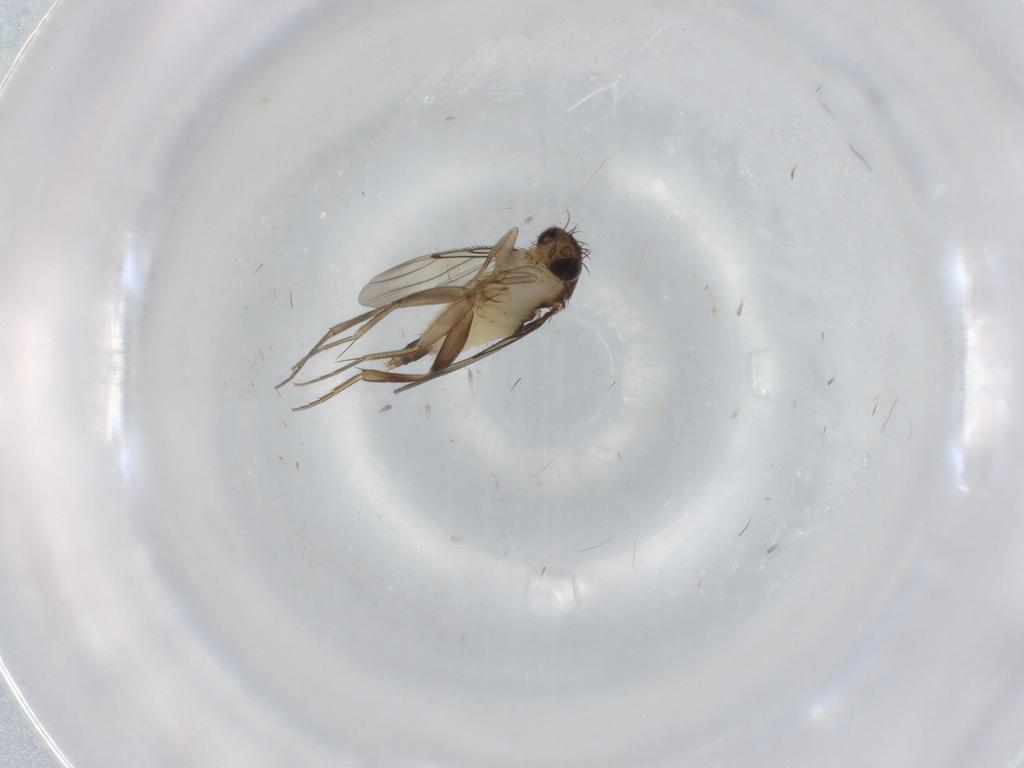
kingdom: Animalia
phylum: Arthropoda
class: Insecta
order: Diptera
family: Phoridae
